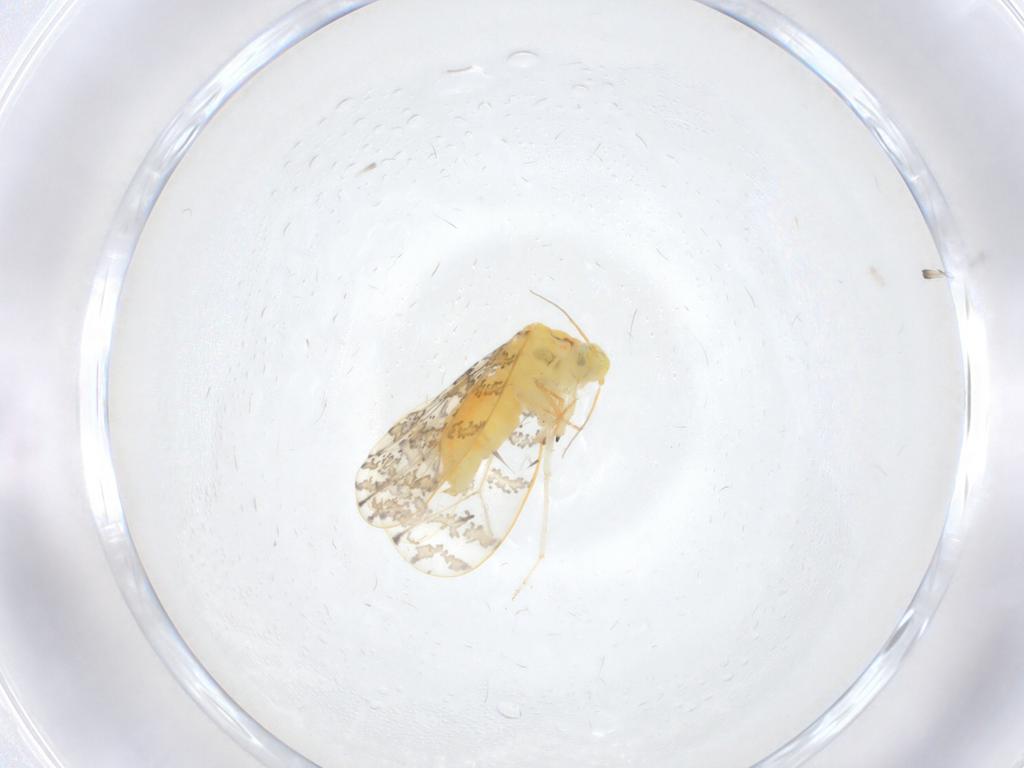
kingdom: Animalia
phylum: Arthropoda
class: Insecta
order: Hemiptera
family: Aleyrodidae
